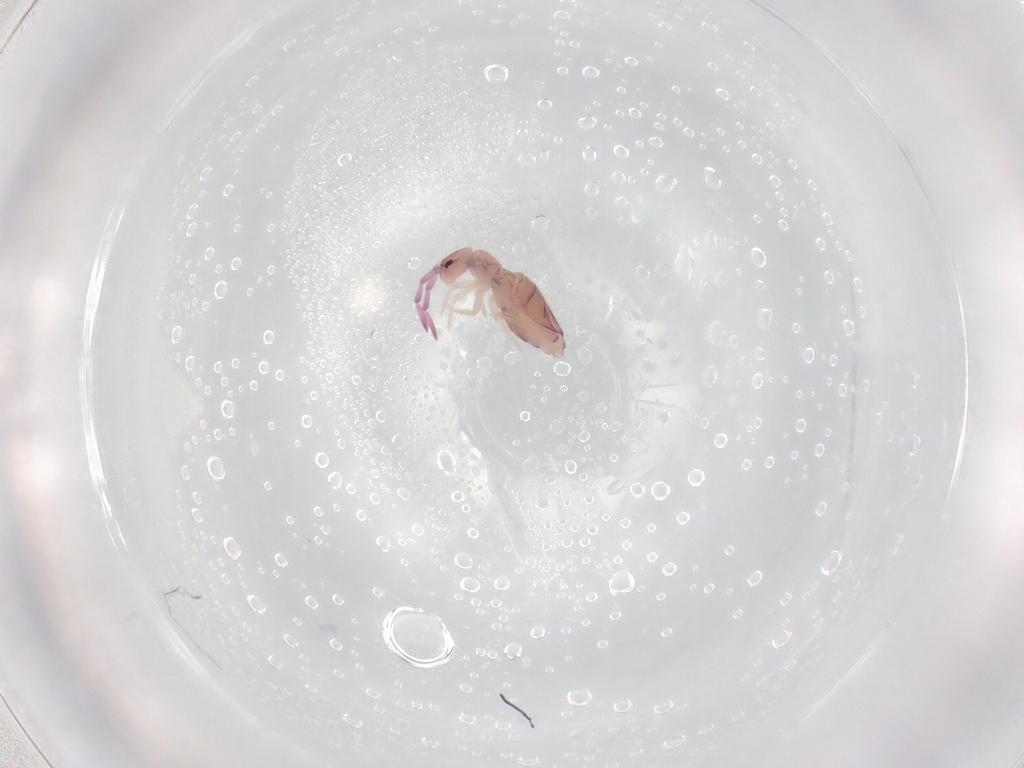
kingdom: Animalia
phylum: Arthropoda
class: Collembola
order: Entomobryomorpha
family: Entomobryidae
